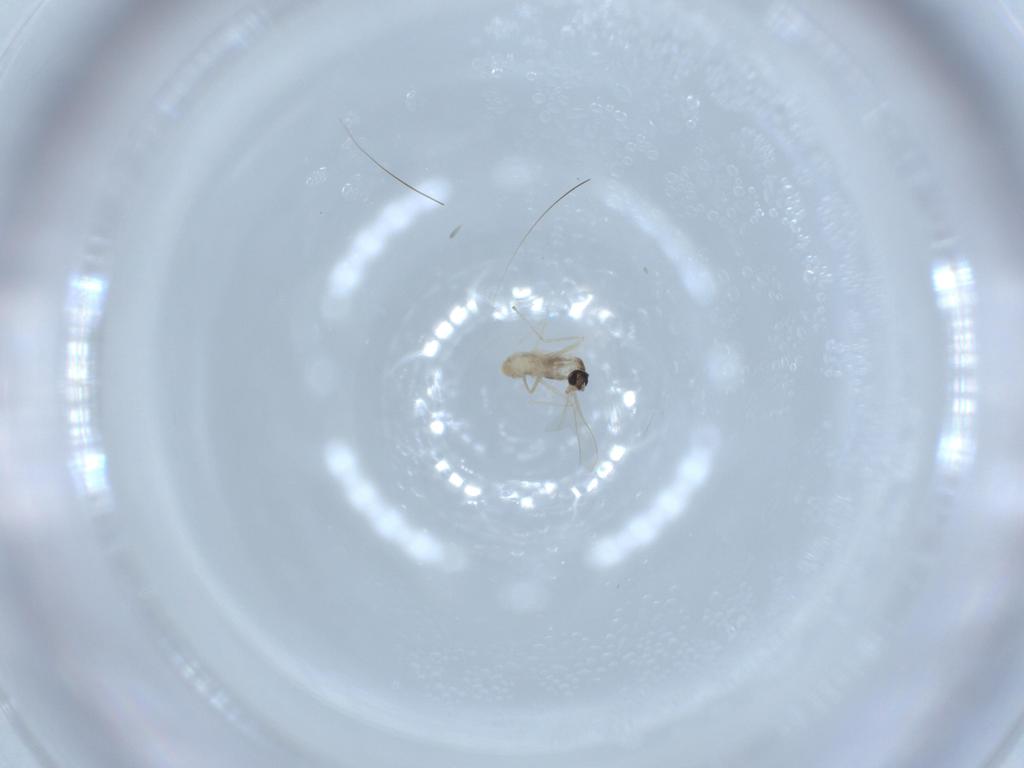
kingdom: Animalia
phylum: Arthropoda
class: Insecta
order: Diptera
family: Cecidomyiidae
